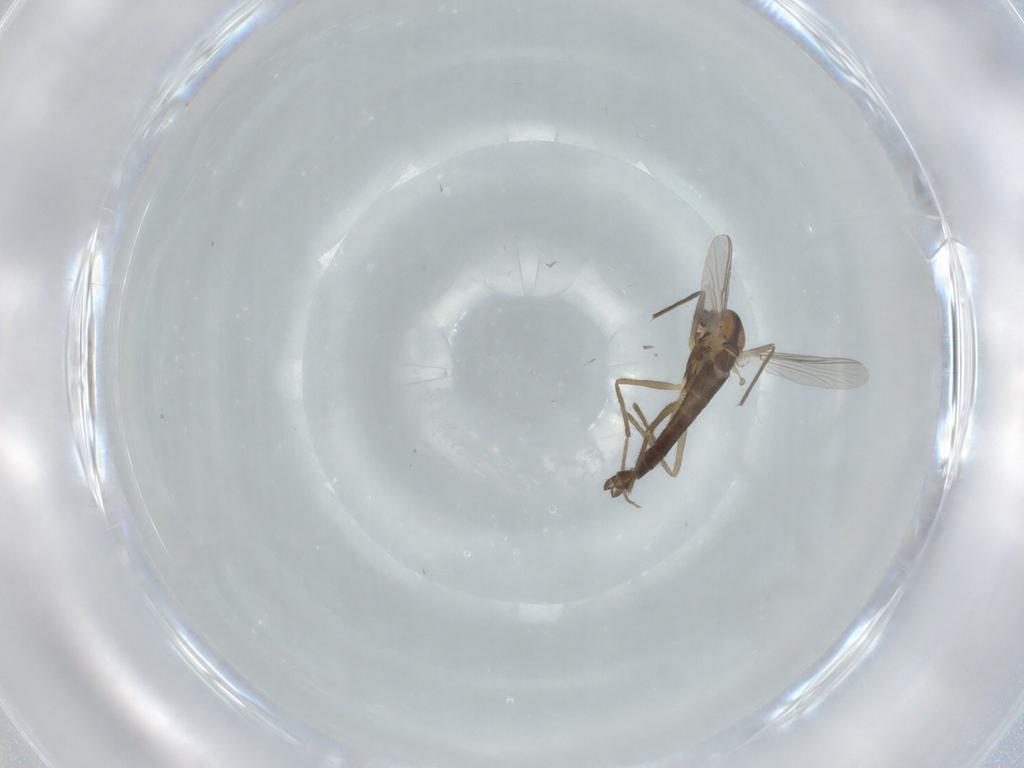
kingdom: Animalia
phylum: Arthropoda
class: Insecta
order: Diptera
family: Chironomidae
